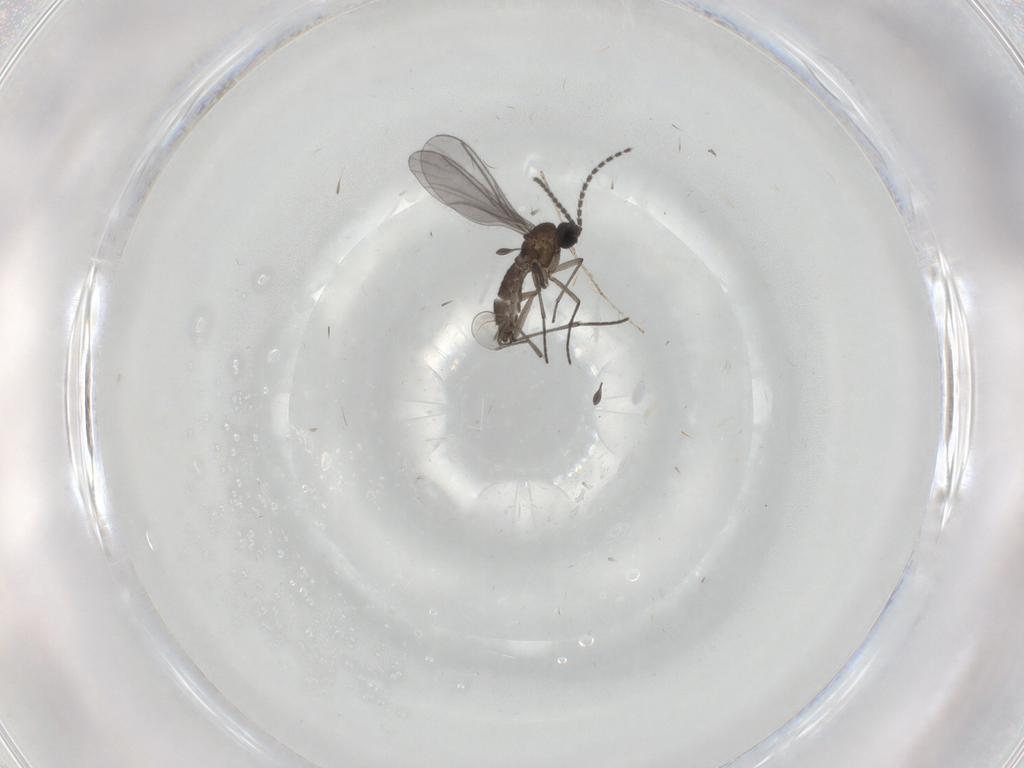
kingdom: Animalia
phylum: Arthropoda
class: Insecta
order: Diptera
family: Cecidomyiidae
